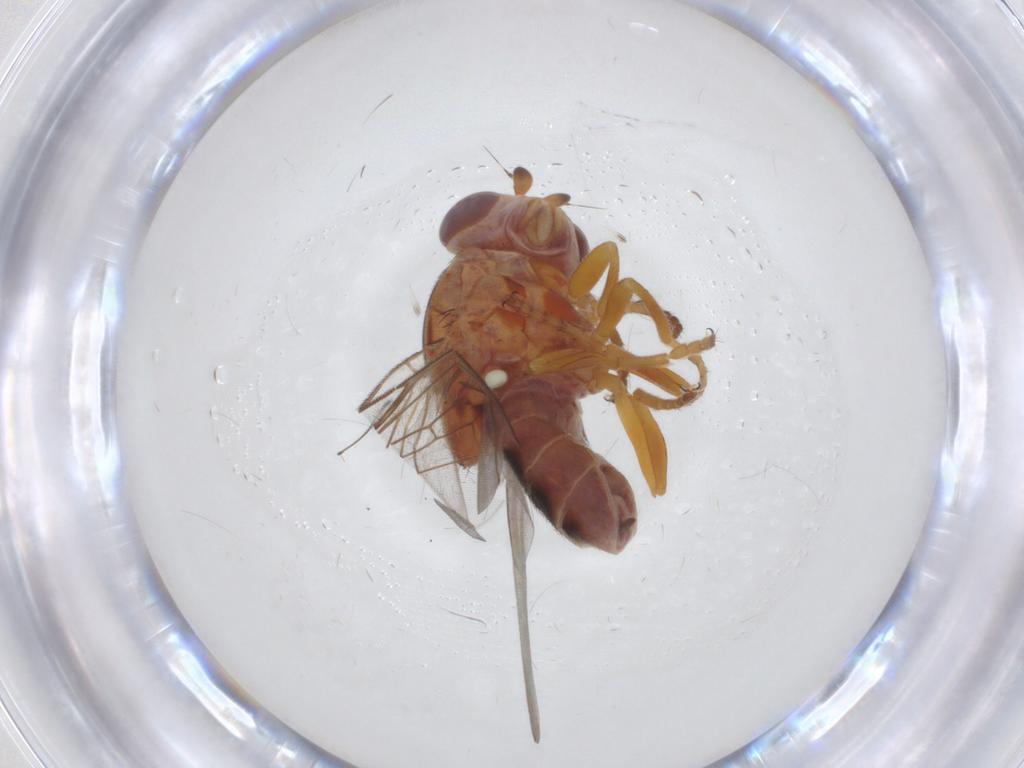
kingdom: Animalia
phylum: Arthropoda
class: Insecta
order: Diptera
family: Chloropidae
